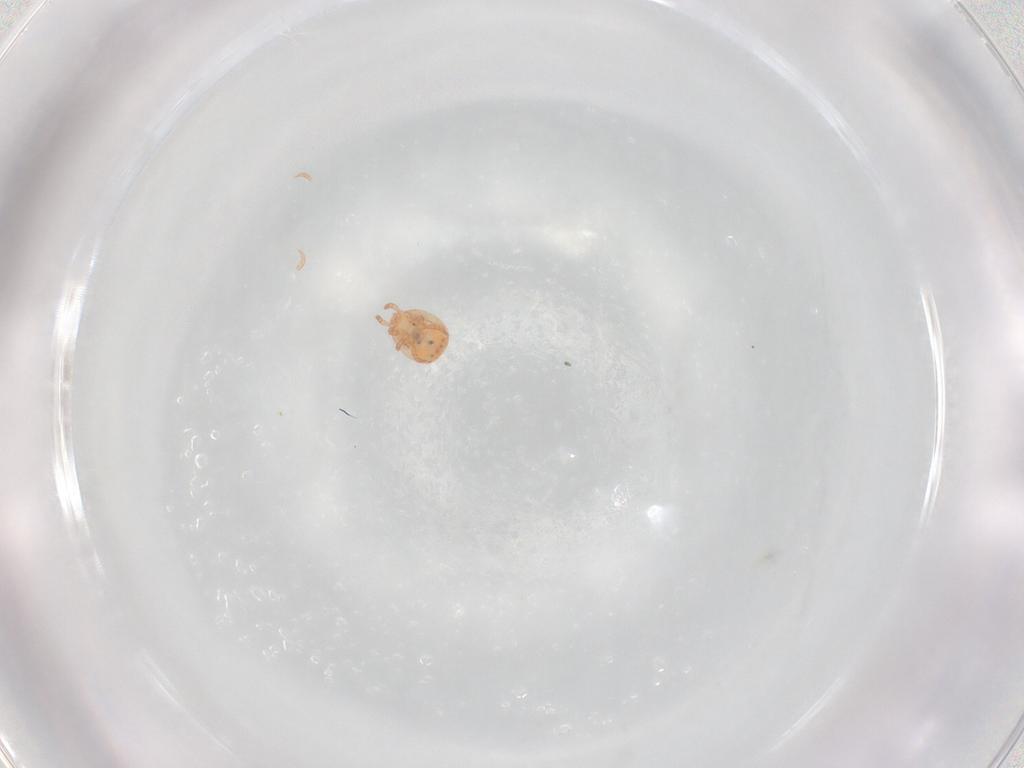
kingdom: Animalia
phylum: Arthropoda
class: Arachnida
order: Mesostigmata
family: Zerconidae
